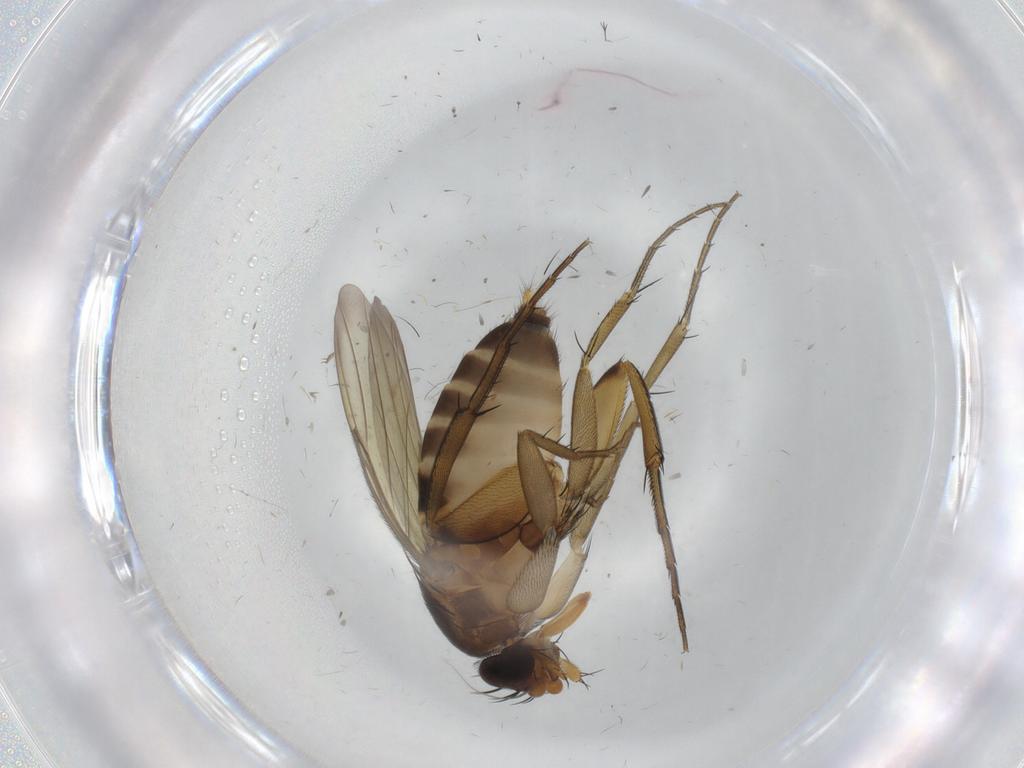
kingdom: Animalia
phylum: Arthropoda
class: Insecta
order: Diptera
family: Phoridae
